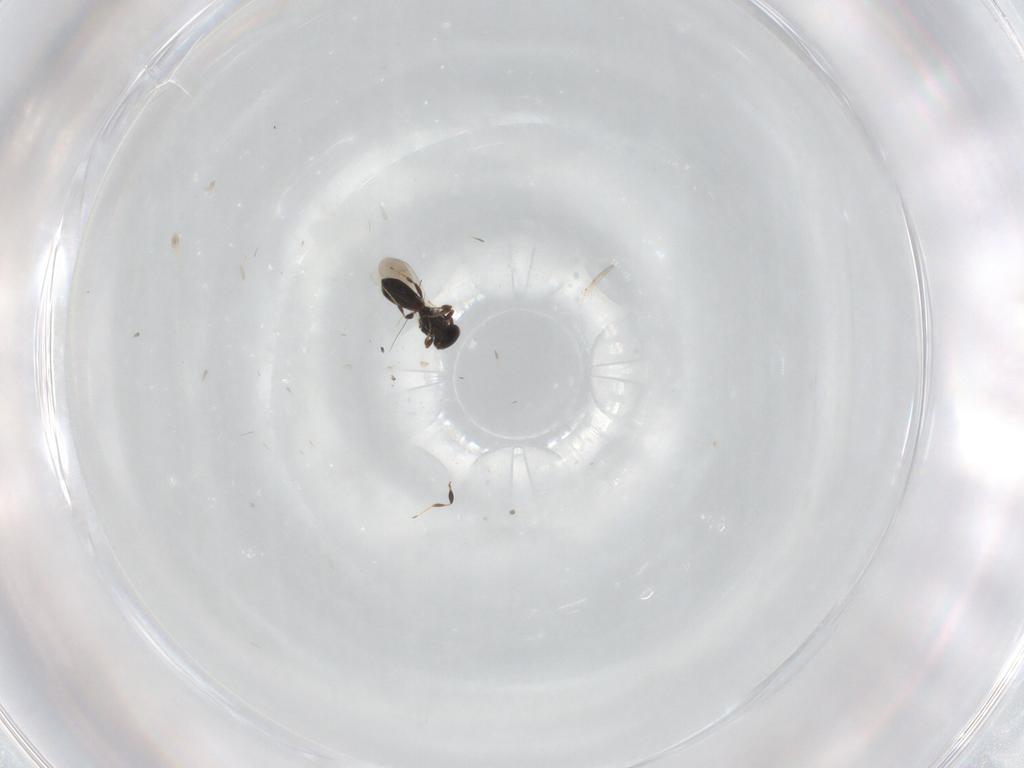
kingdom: Animalia
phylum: Arthropoda
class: Insecta
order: Hymenoptera
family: Platygastridae
